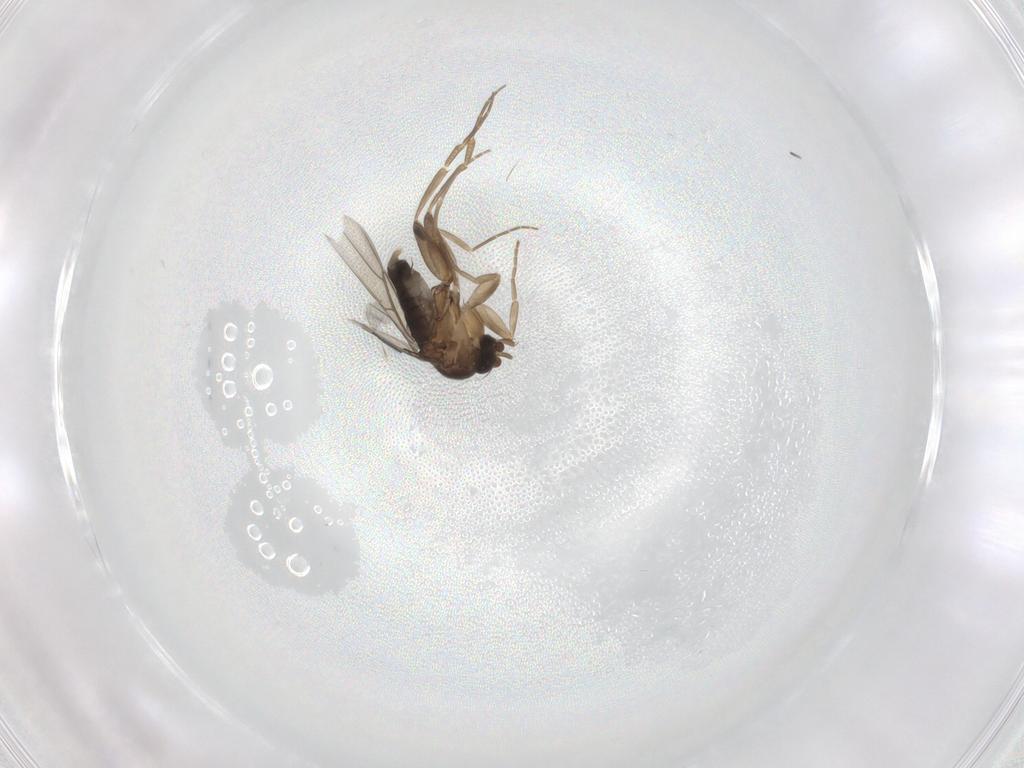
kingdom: Animalia
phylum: Arthropoda
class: Insecta
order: Diptera
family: Phoridae
